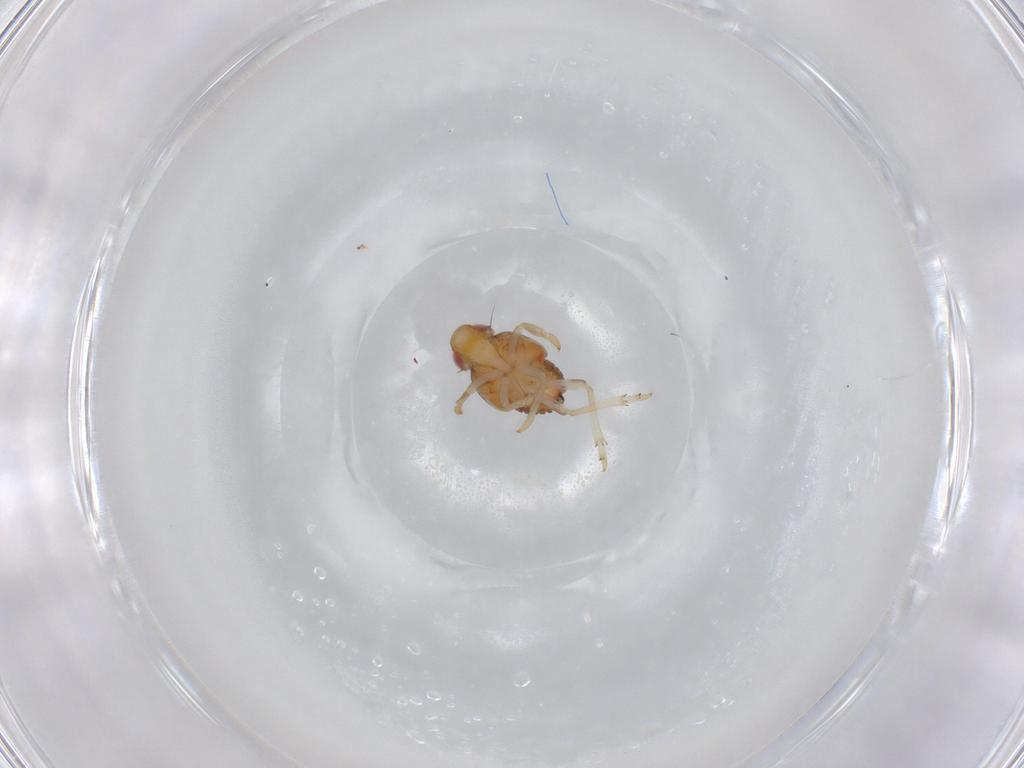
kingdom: Animalia
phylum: Arthropoda
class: Insecta
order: Hemiptera
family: Issidae
